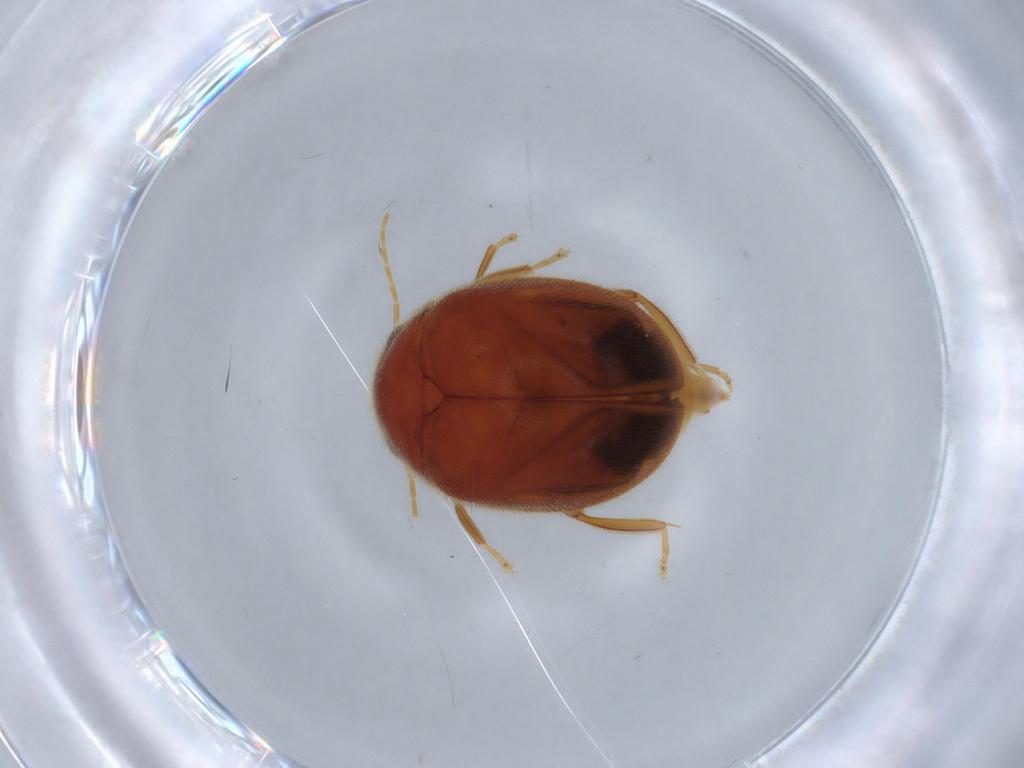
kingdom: Animalia
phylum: Arthropoda
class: Insecta
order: Coleoptera
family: Scirtidae
